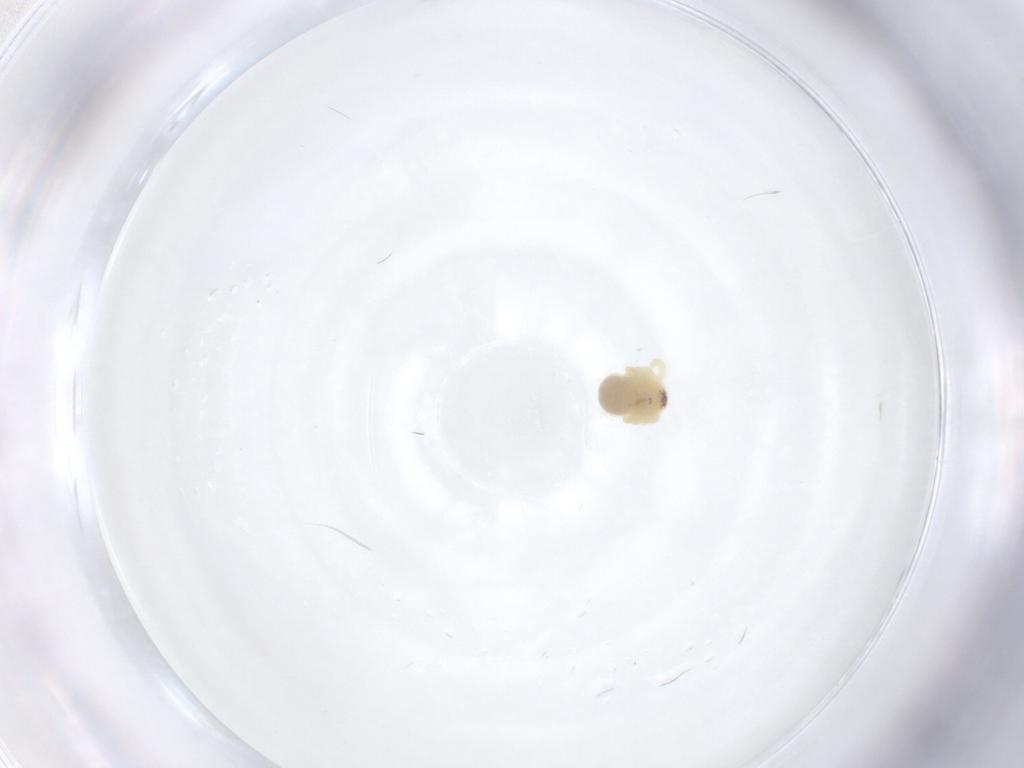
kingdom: Animalia
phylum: Arthropoda
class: Arachnida
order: Araneae
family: Pholcidae
